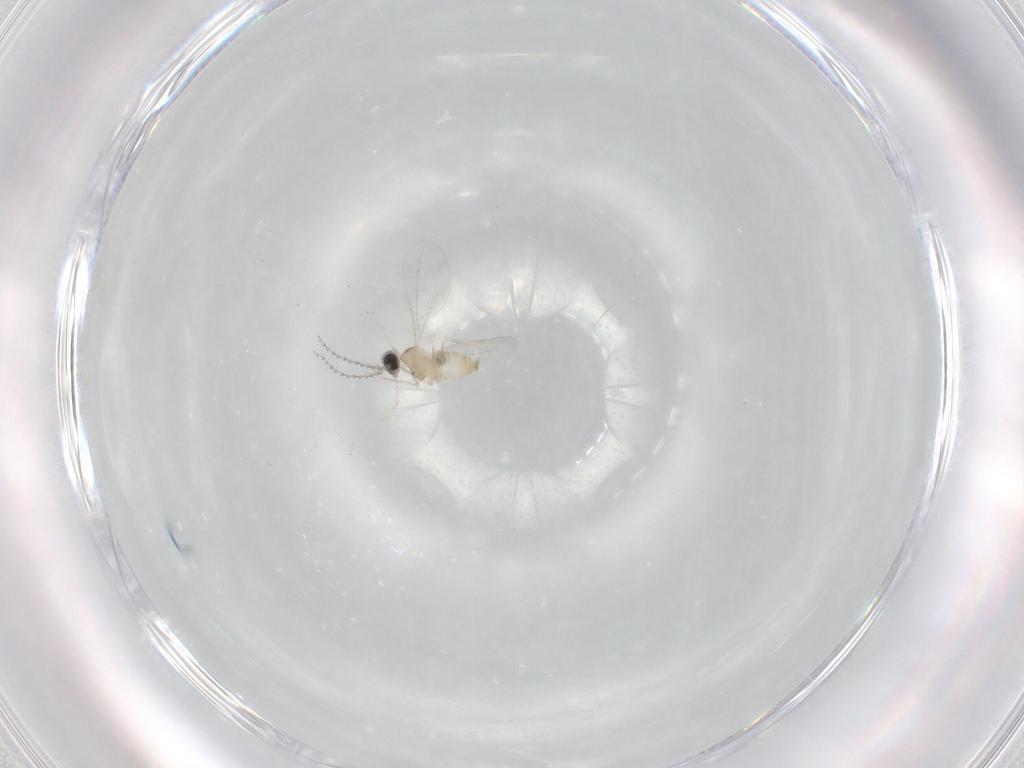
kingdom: Animalia
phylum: Arthropoda
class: Insecta
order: Diptera
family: Cecidomyiidae
